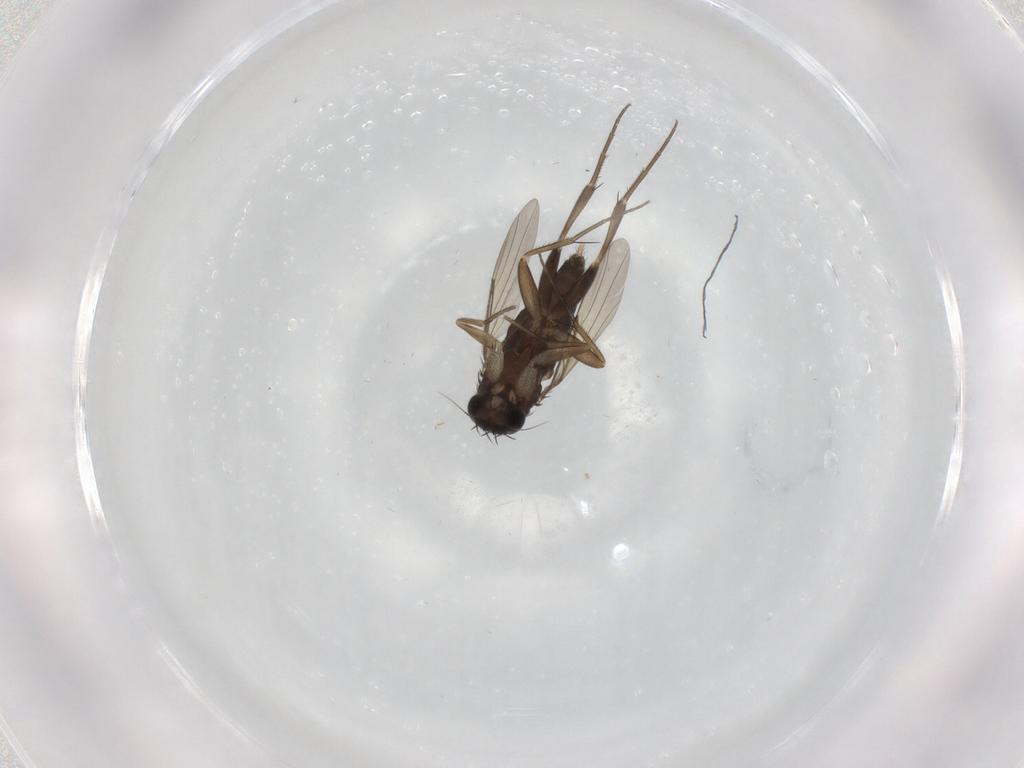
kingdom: Animalia
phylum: Arthropoda
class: Insecta
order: Diptera
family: Phoridae
